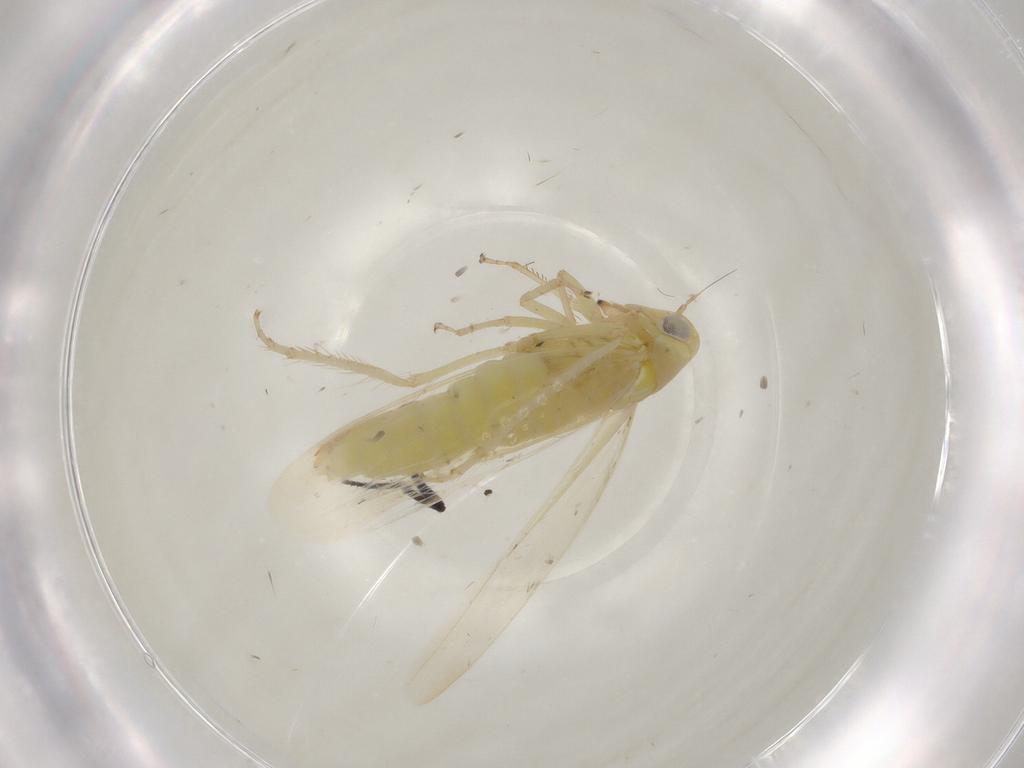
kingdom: Animalia
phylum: Arthropoda
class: Insecta
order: Hemiptera
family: Cicadellidae
